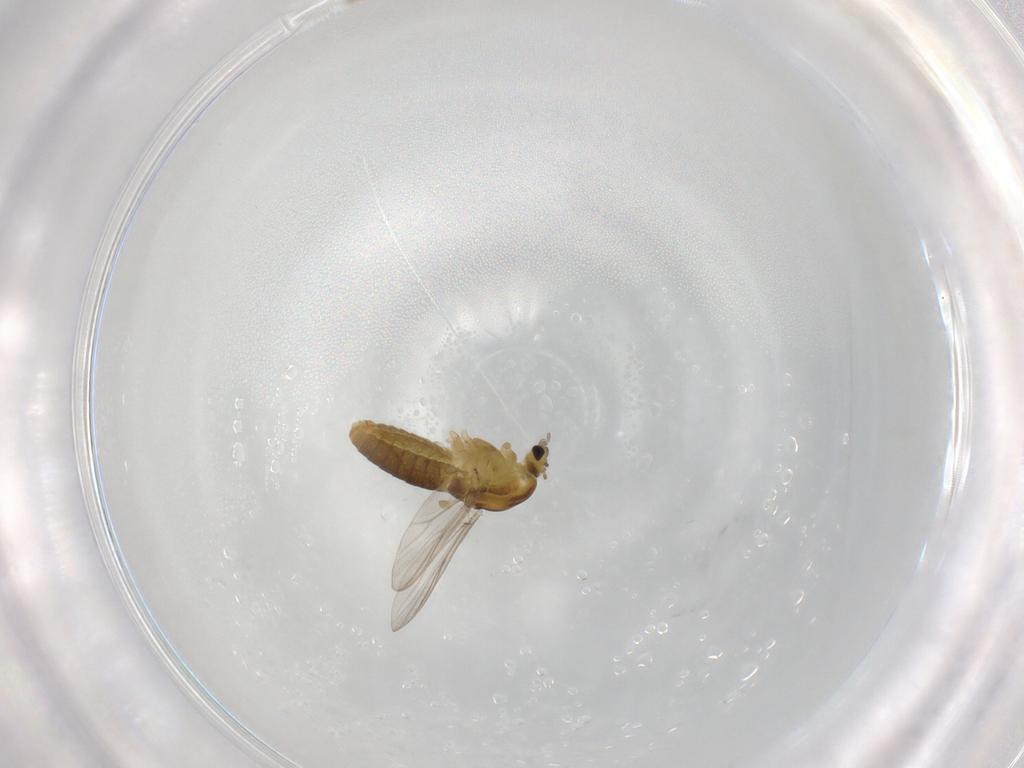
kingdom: Animalia
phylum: Arthropoda
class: Insecta
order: Diptera
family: Chironomidae
